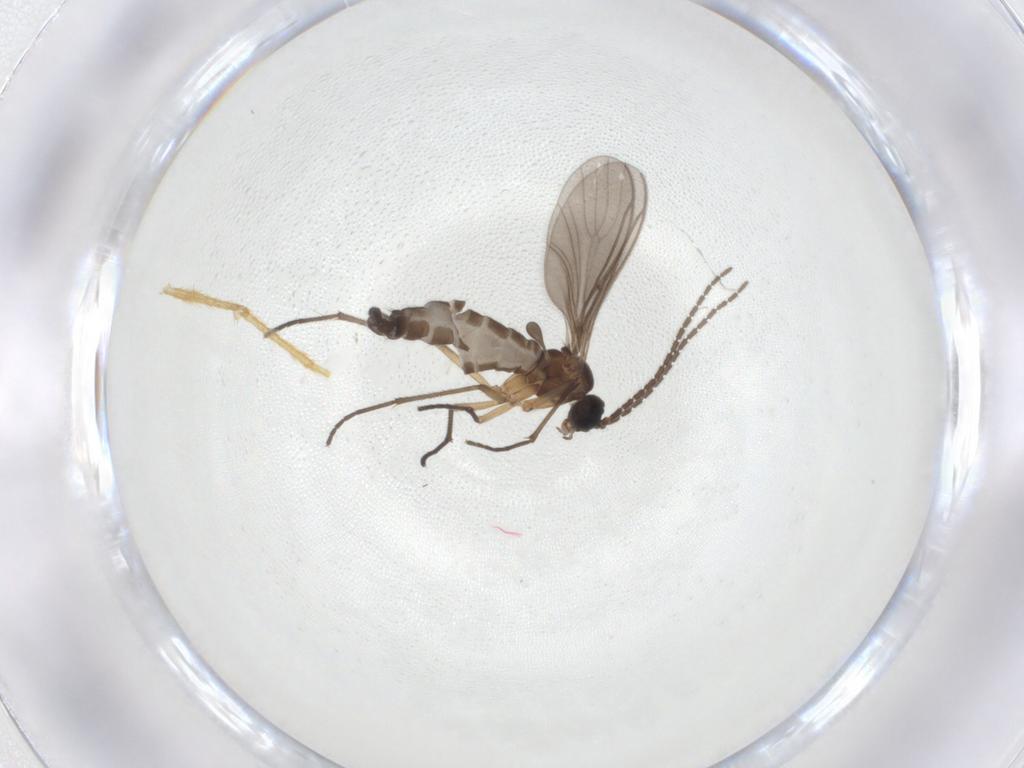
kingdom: Animalia
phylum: Arthropoda
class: Insecta
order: Diptera
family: Chironomidae
